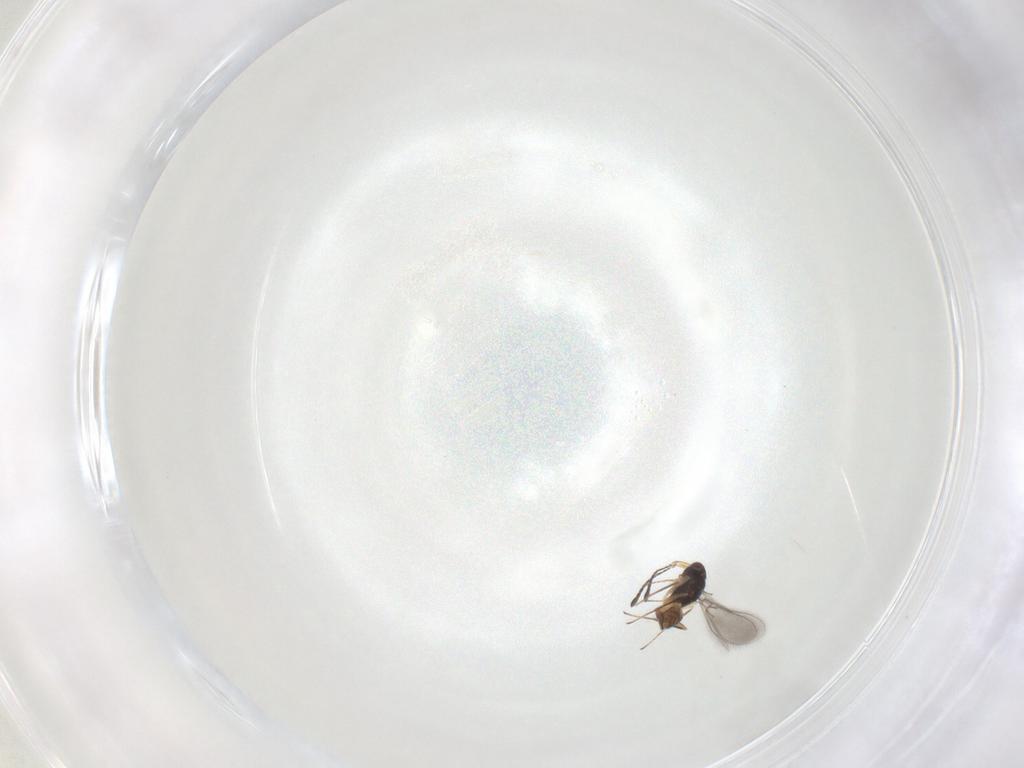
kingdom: Animalia
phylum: Arthropoda
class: Insecta
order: Hymenoptera
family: Mymaridae
